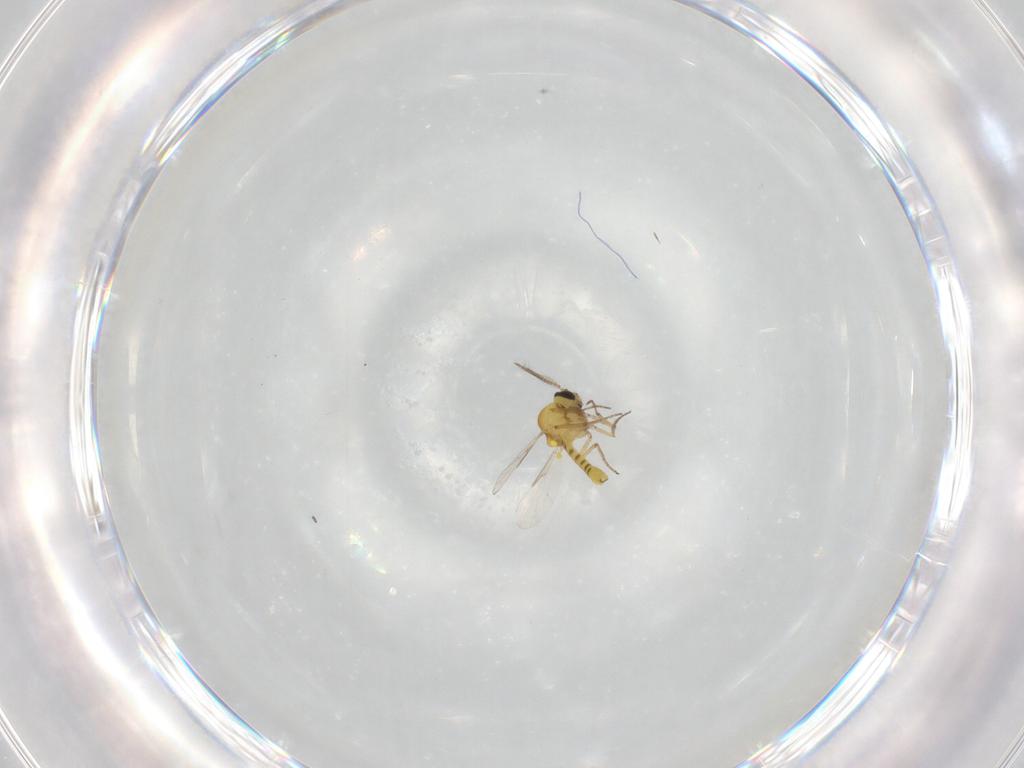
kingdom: Animalia
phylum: Arthropoda
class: Insecta
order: Diptera
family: Ceratopogonidae
